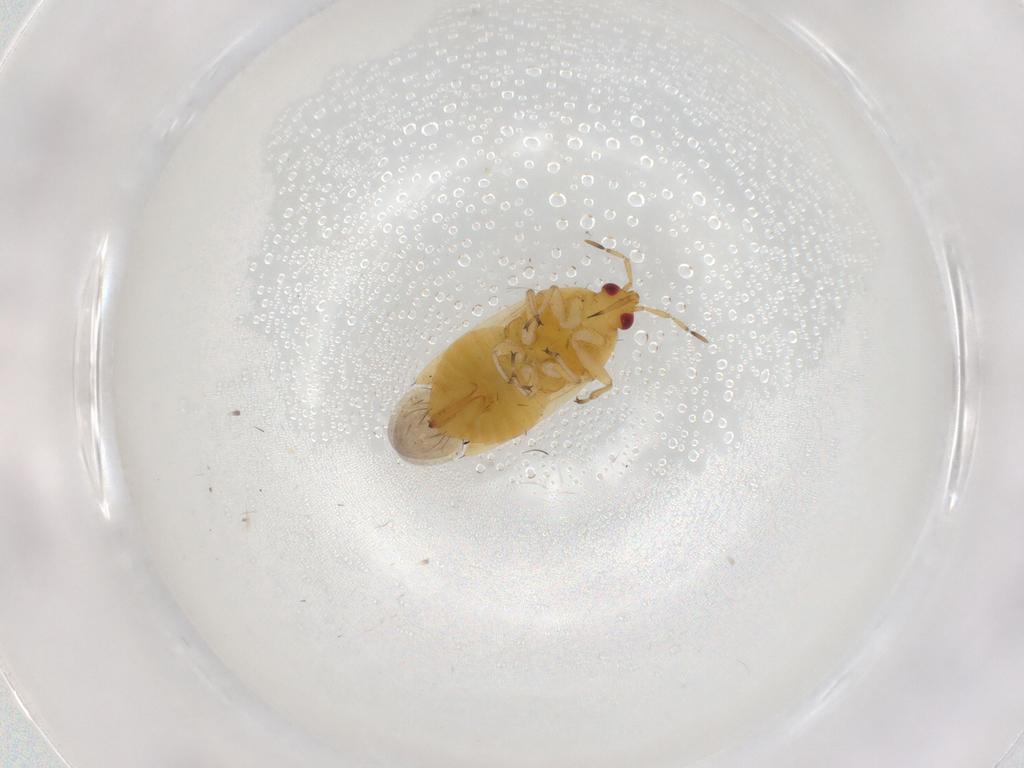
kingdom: Animalia
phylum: Arthropoda
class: Insecta
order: Hemiptera
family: Anthocoridae
